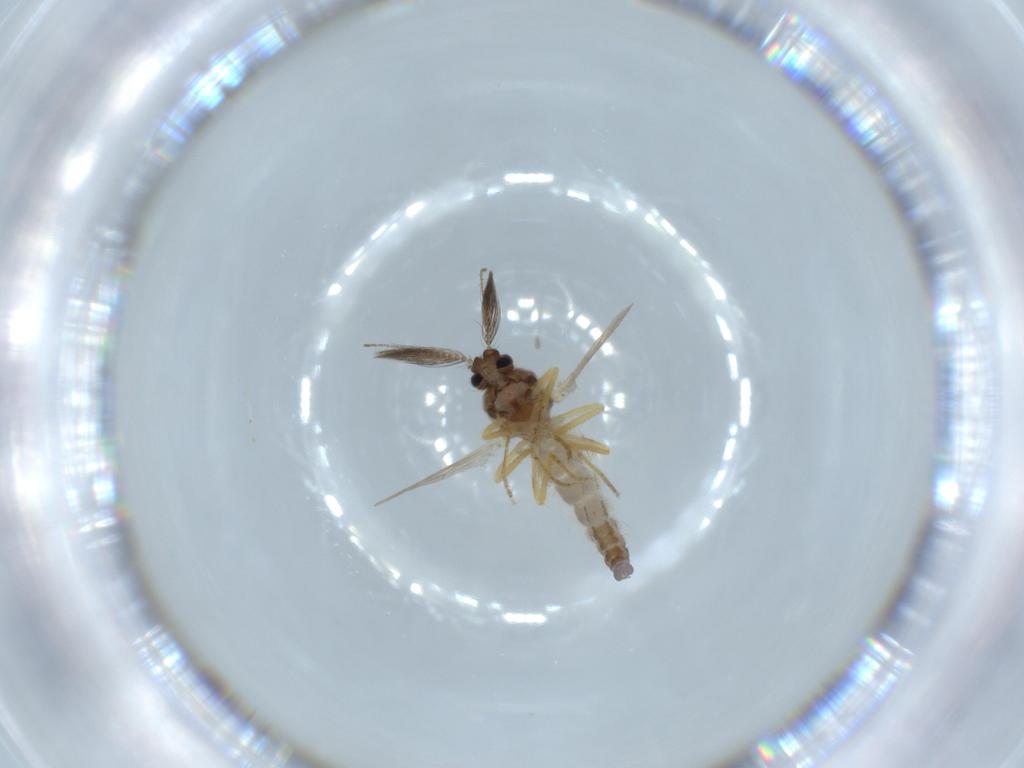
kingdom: Animalia
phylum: Arthropoda
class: Insecta
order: Diptera
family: Ceratopogonidae
